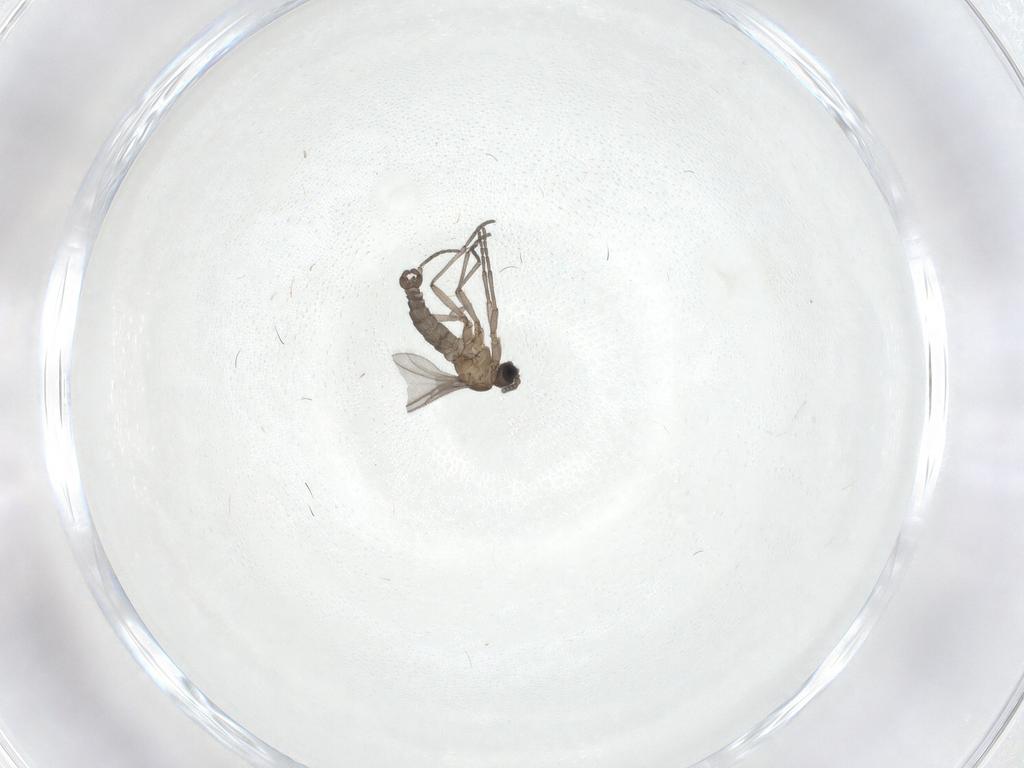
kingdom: Animalia
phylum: Arthropoda
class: Insecta
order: Diptera
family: Sciaridae
